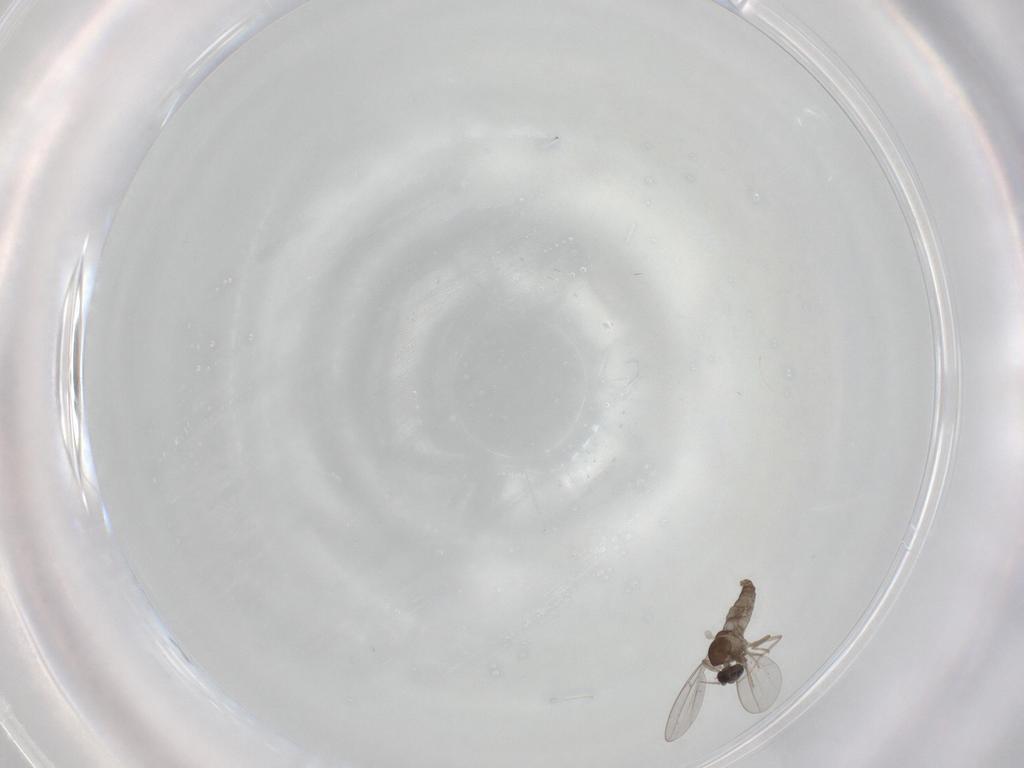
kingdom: Animalia
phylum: Arthropoda
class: Insecta
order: Diptera
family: Cecidomyiidae
